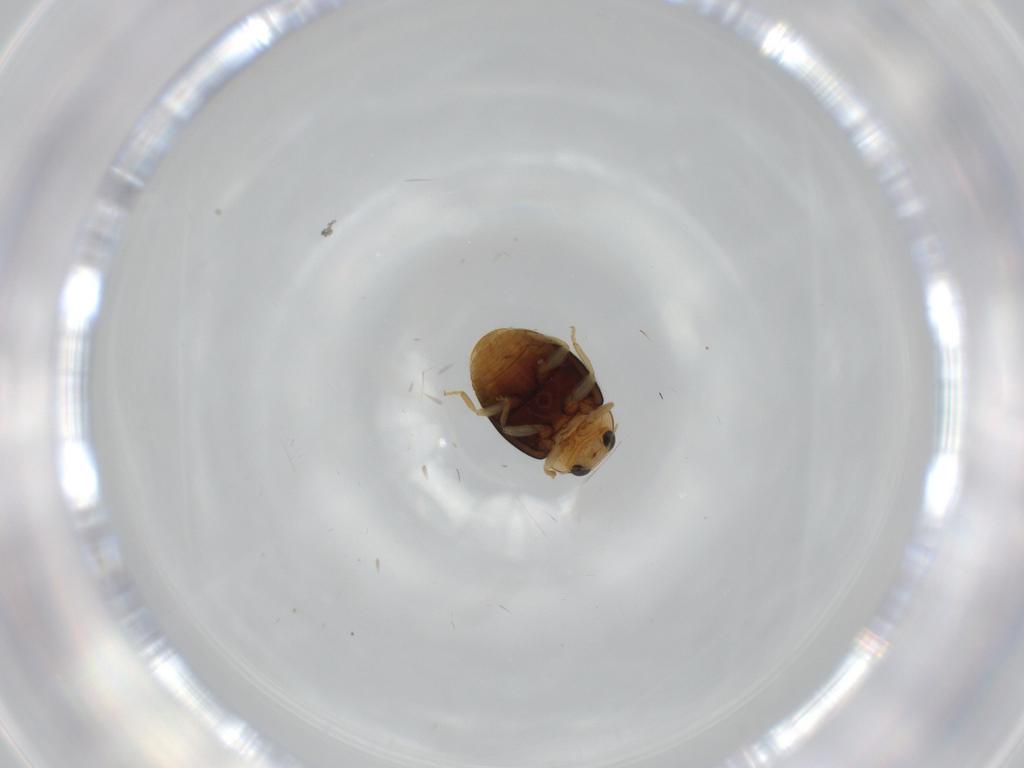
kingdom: Animalia
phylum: Arthropoda
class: Insecta
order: Coleoptera
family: Coccinellidae
